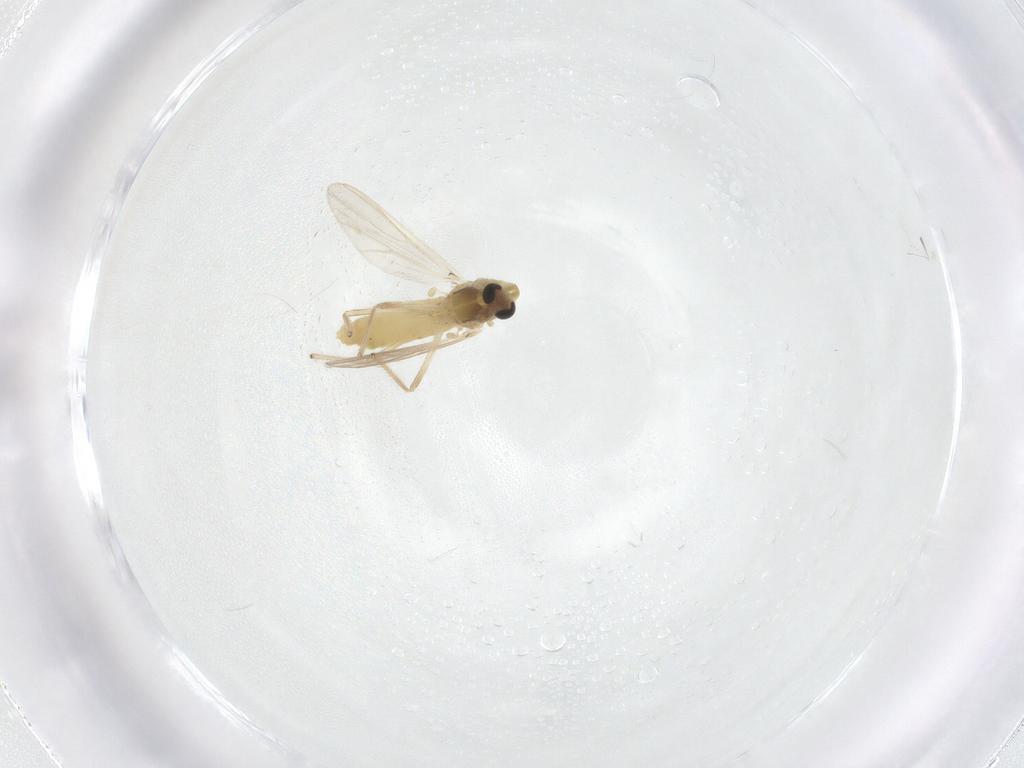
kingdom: Animalia
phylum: Arthropoda
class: Insecta
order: Diptera
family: Chironomidae
